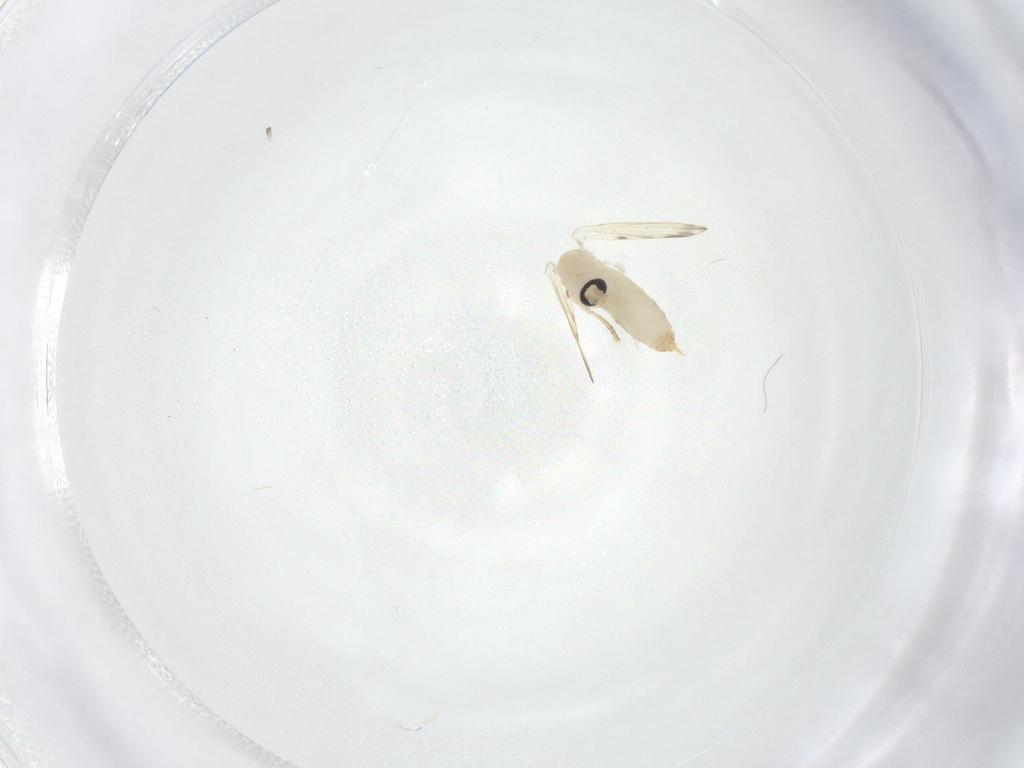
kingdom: Animalia
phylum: Arthropoda
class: Insecta
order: Diptera
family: Psychodidae
